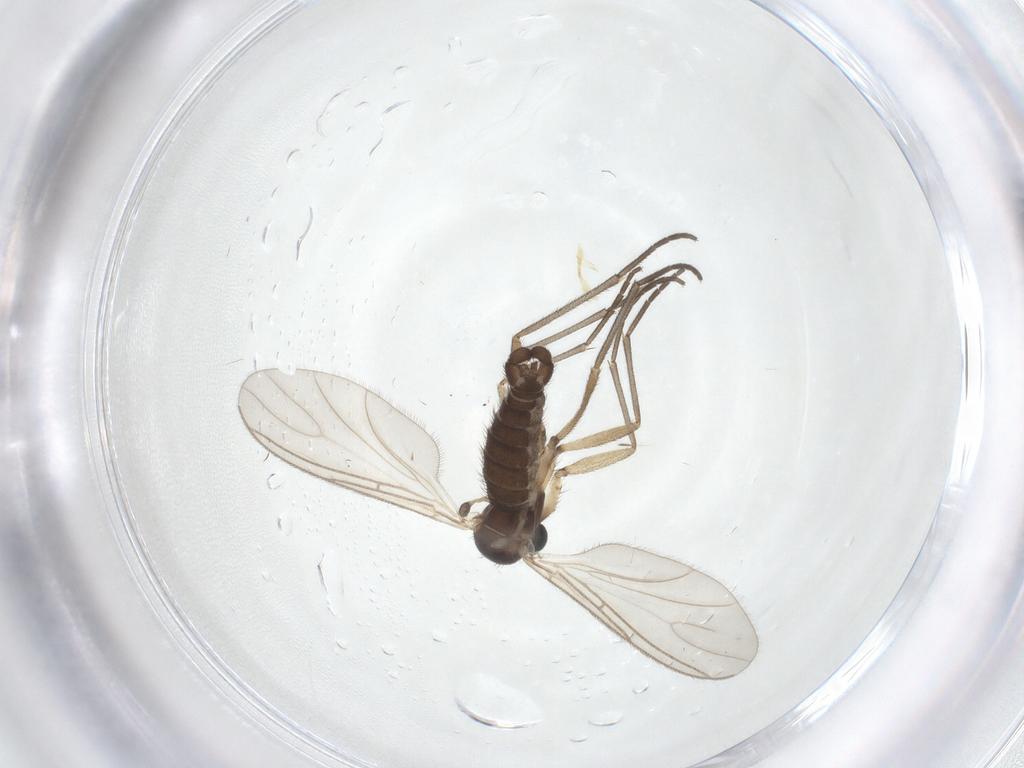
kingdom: Animalia
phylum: Arthropoda
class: Insecta
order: Diptera
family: Sciaridae
